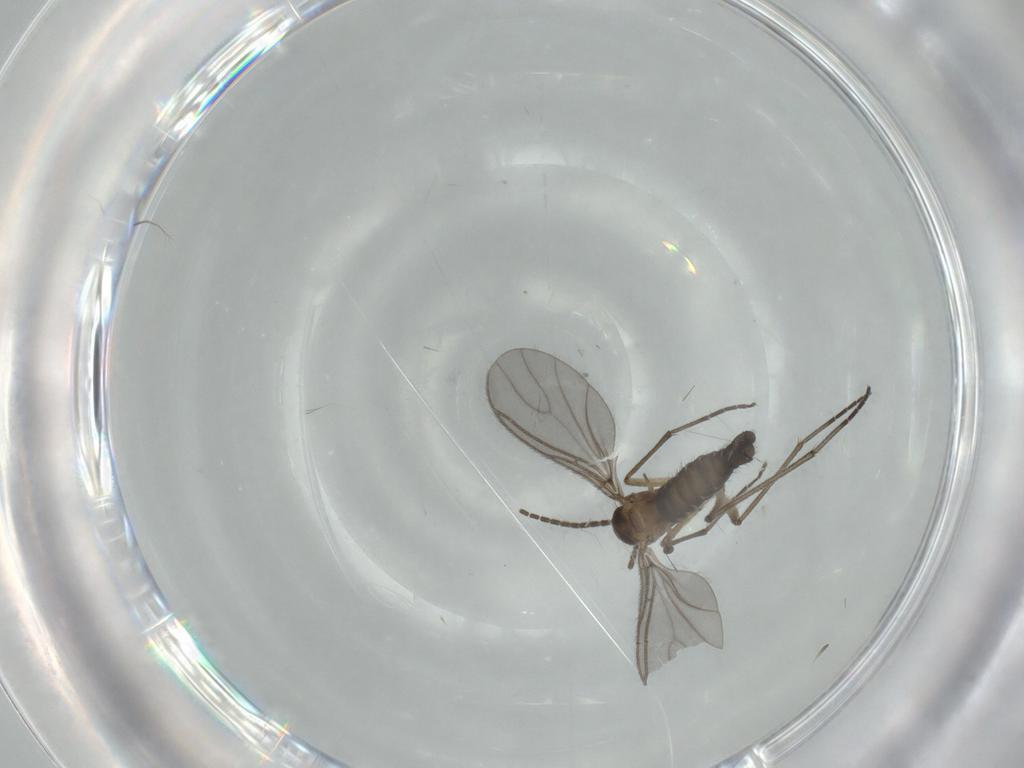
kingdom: Animalia
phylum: Arthropoda
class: Insecta
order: Diptera
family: Sciaridae
